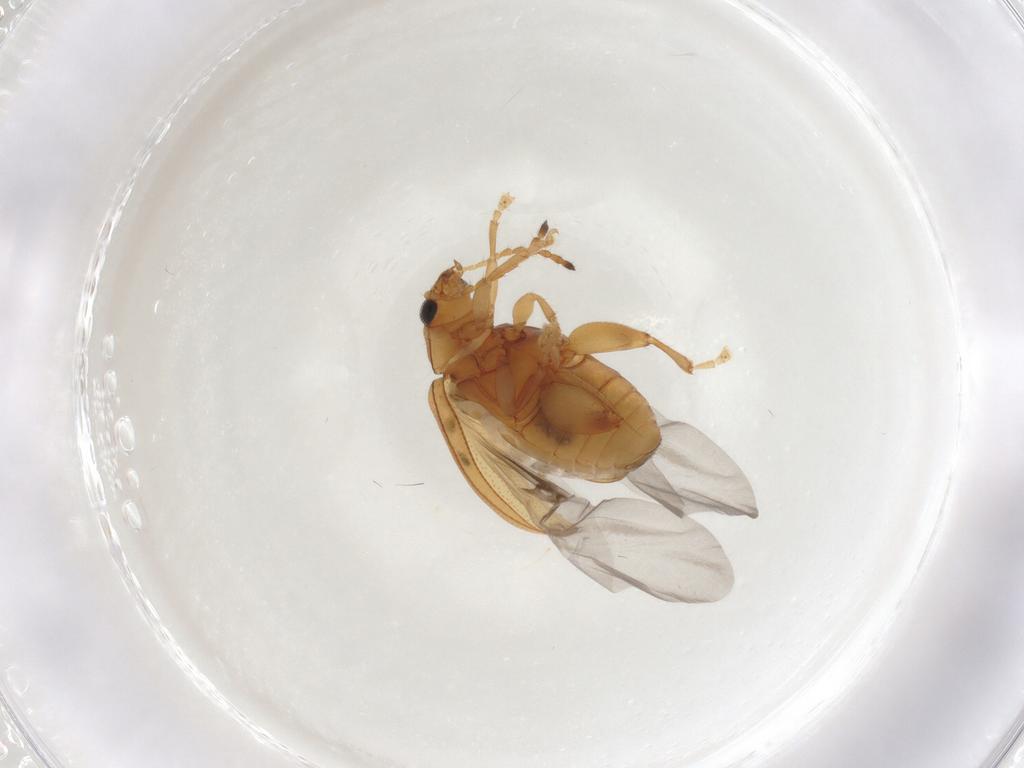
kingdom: Animalia
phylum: Arthropoda
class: Insecta
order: Coleoptera
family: Chrysomelidae
